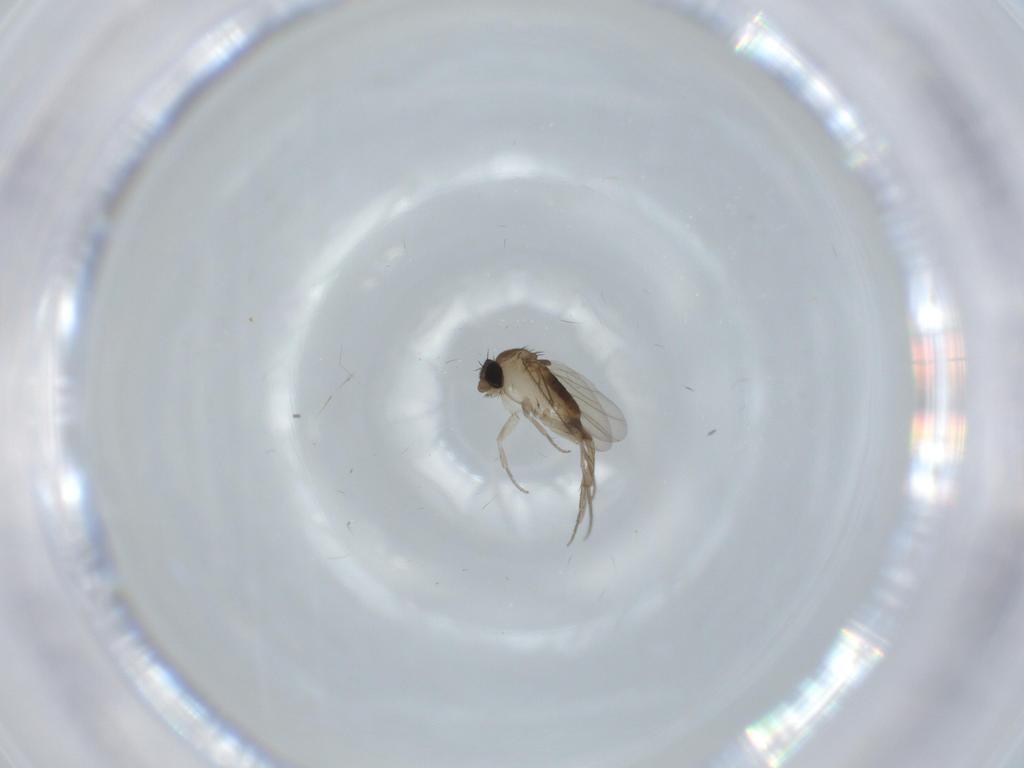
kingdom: Animalia
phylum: Arthropoda
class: Insecta
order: Diptera
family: Phoridae
